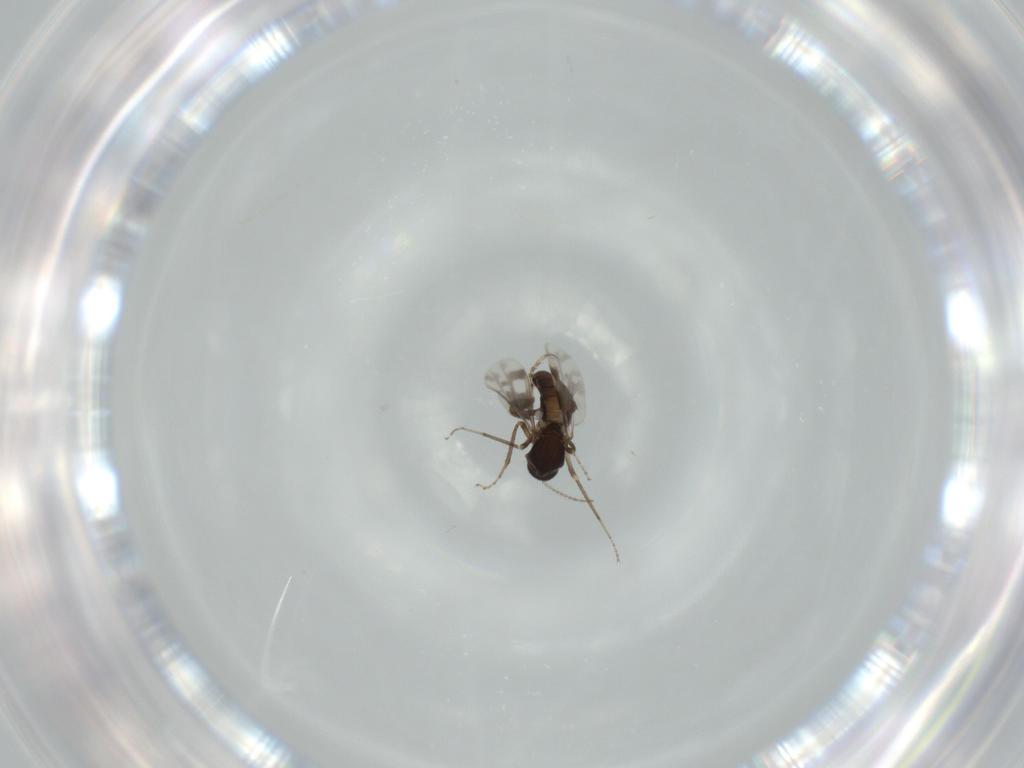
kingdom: Animalia
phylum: Arthropoda
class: Insecta
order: Diptera
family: Ceratopogonidae
